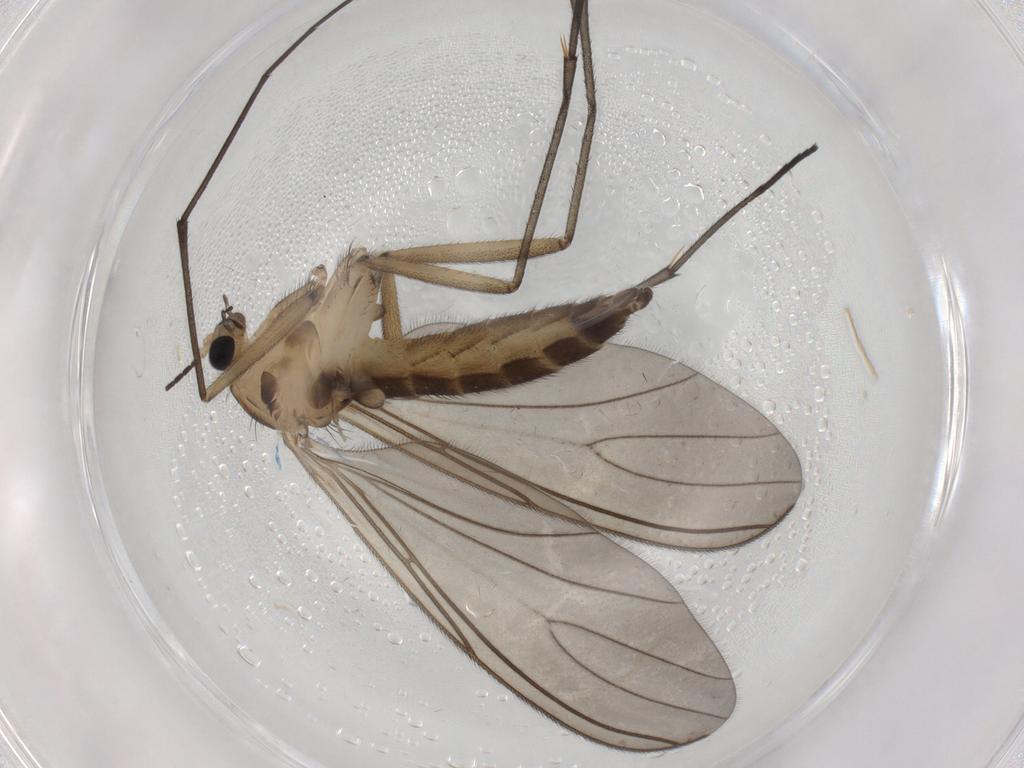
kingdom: Animalia
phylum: Arthropoda
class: Insecta
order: Diptera
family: Sciaridae
